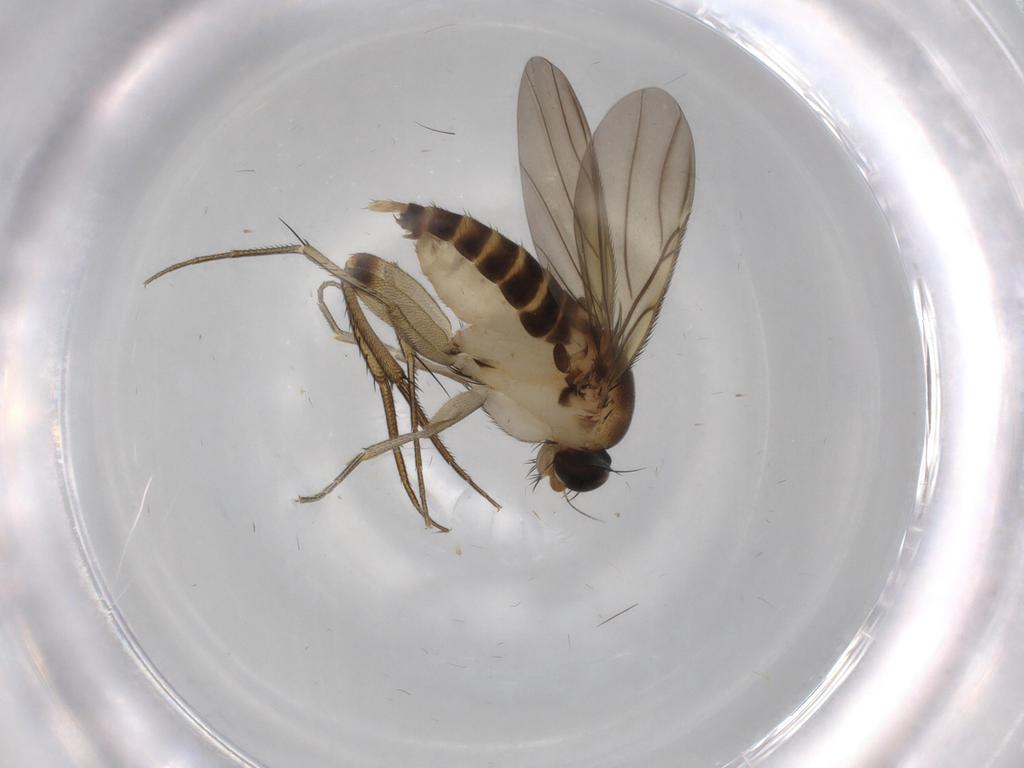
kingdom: Animalia
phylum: Arthropoda
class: Insecta
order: Diptera
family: Phoridae
